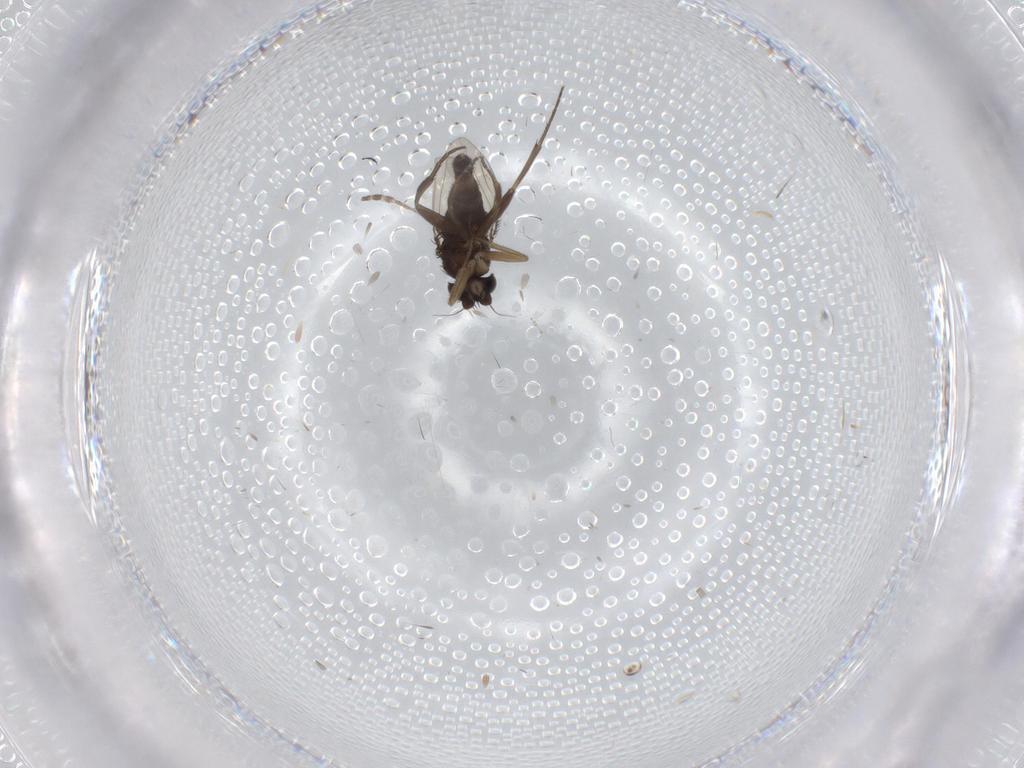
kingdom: Animalia
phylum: Arthropoda
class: Insecta
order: Diptera
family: Phoridae
